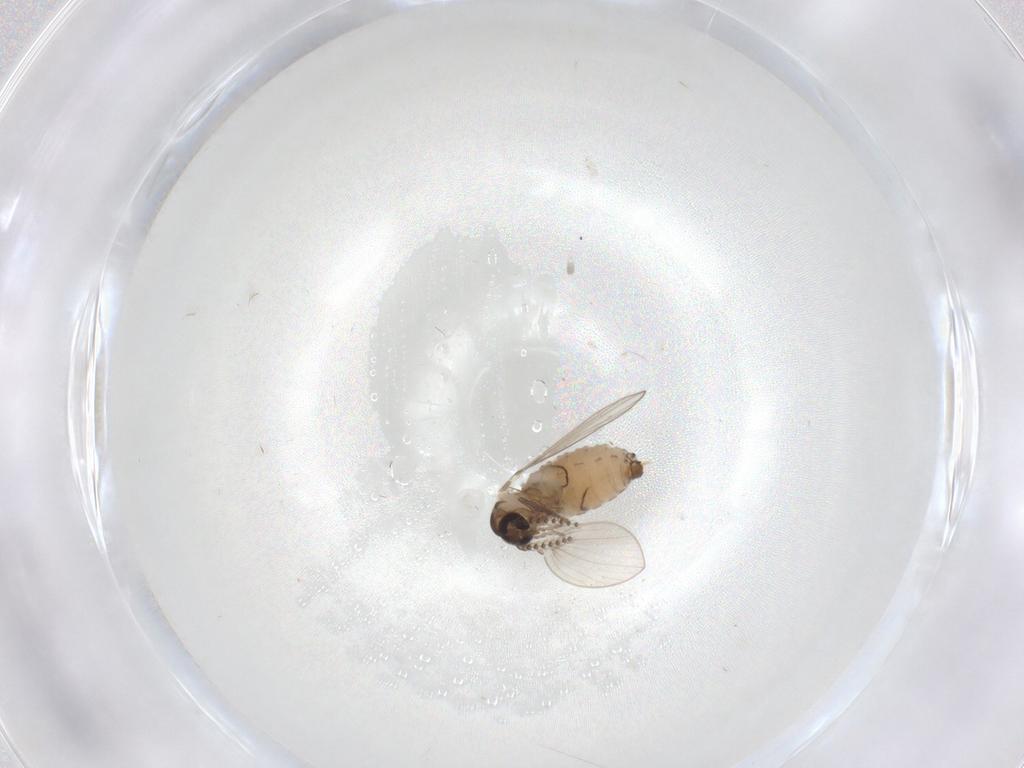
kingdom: Animalia
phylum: Arthropoda
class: Insecta
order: Diptera
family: Psychodidae
